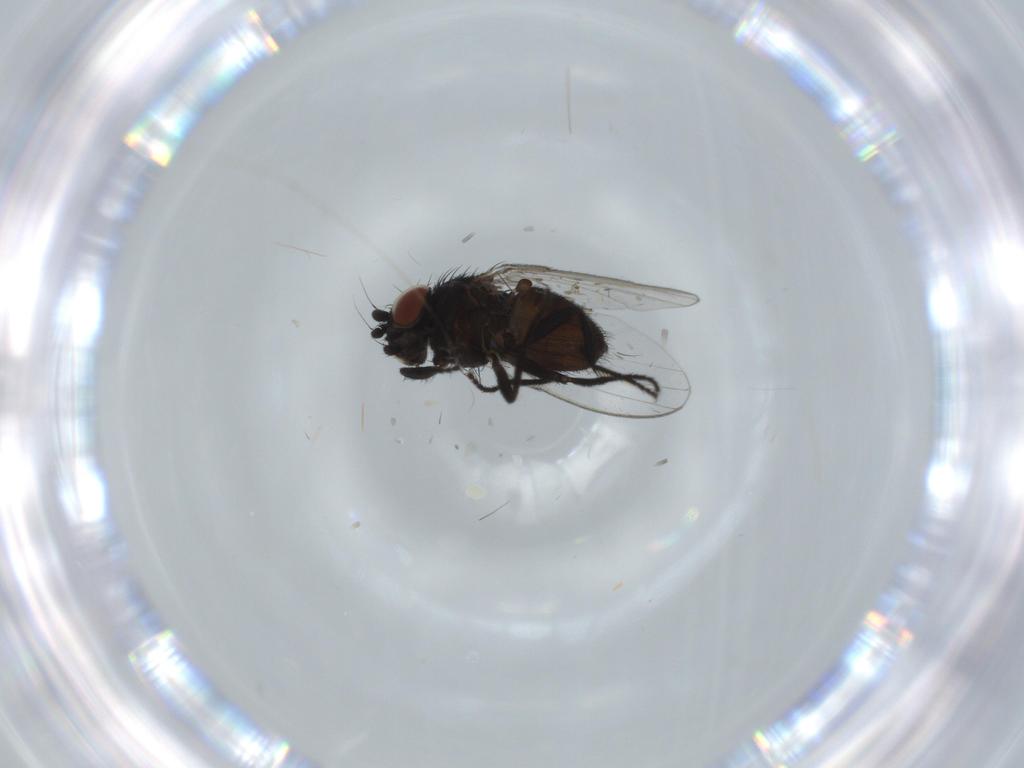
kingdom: Animalia
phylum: Arthropoda
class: Insecta
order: Diptera
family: Milichiidae
